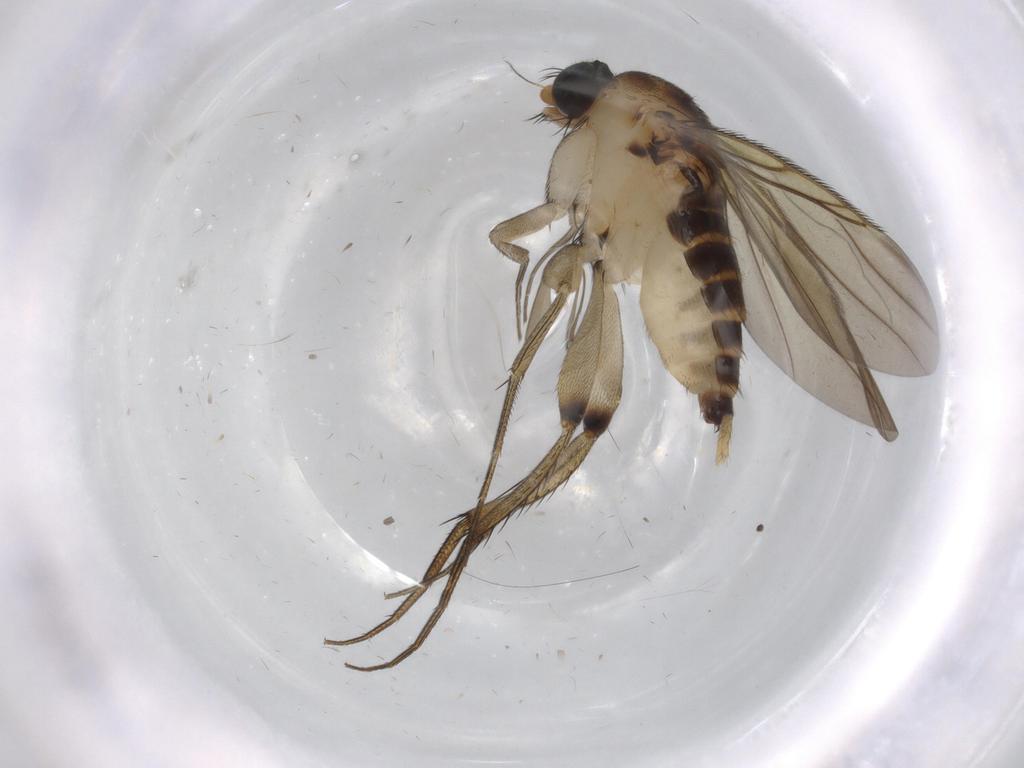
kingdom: Animalia
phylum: Arthropoda
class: Insecta
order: Diptera
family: Phoridae
